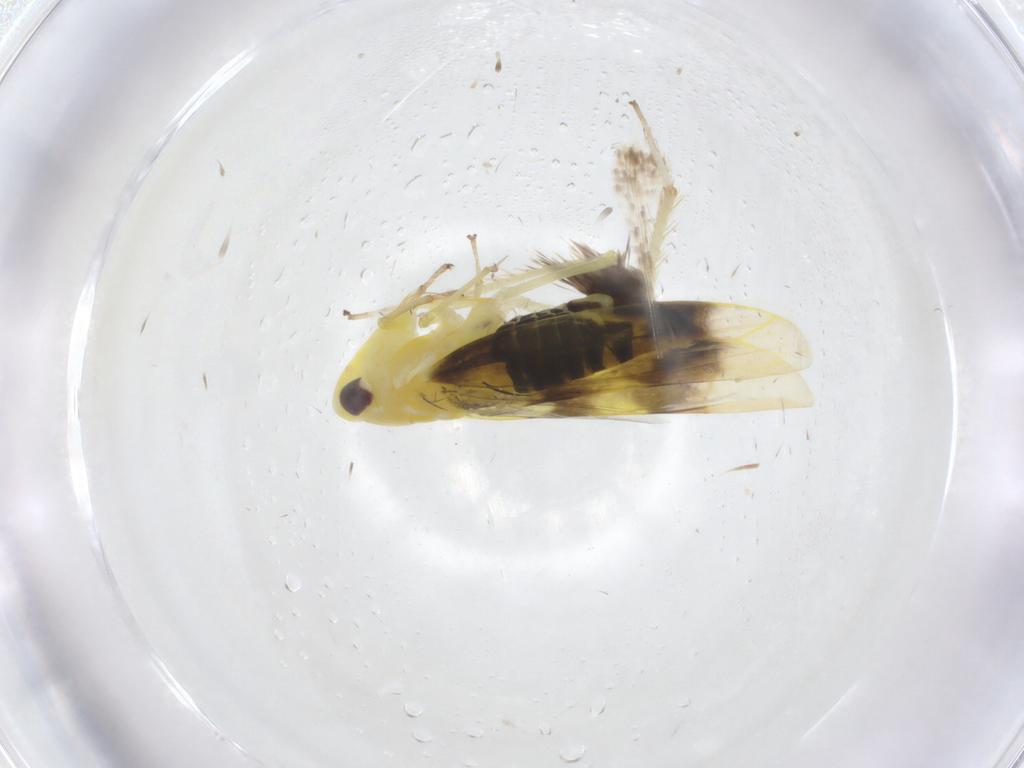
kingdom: Animalia
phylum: Arthropoda
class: Insecta
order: Hemiptera
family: Cicadellidae
